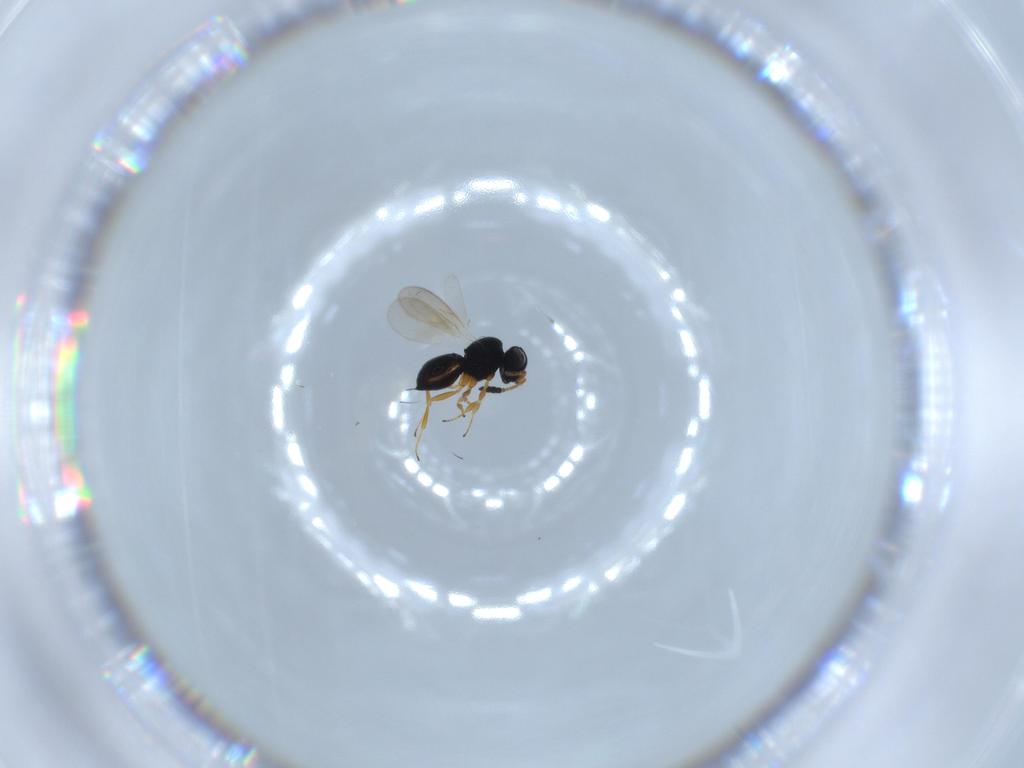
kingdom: Animalia
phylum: Arthropoda
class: Insecta
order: Hymenoptera
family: Scelionidae
